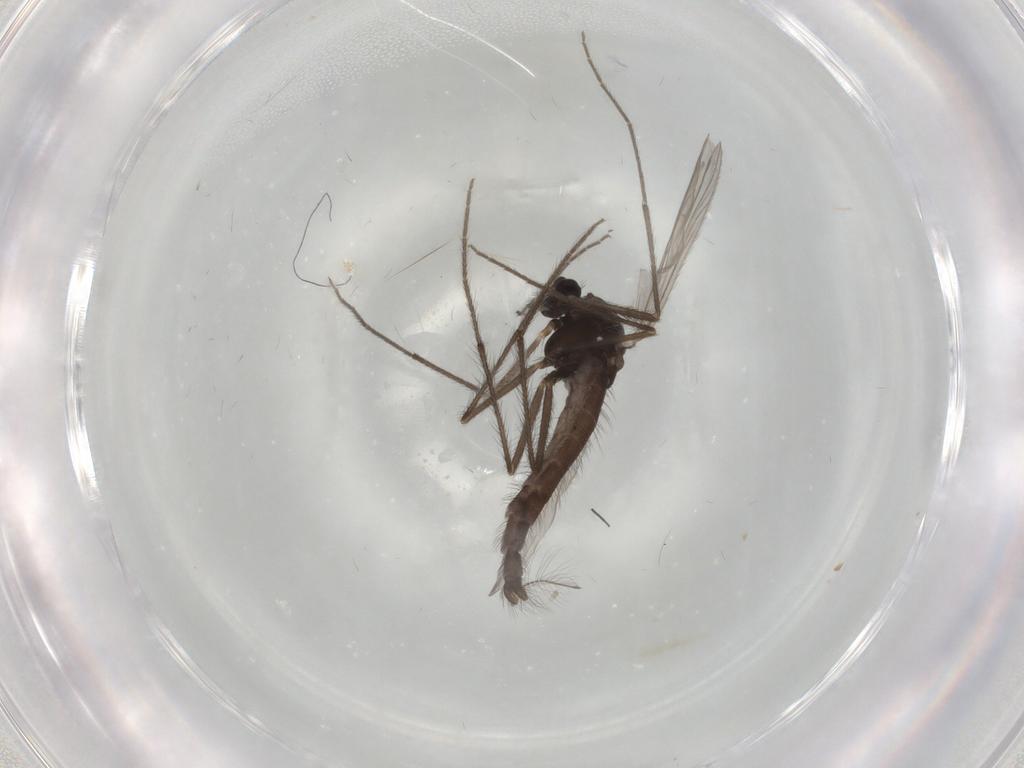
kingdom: Animalia
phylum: Arthropoda
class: Insecta
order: Diptera
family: Chironomidae
